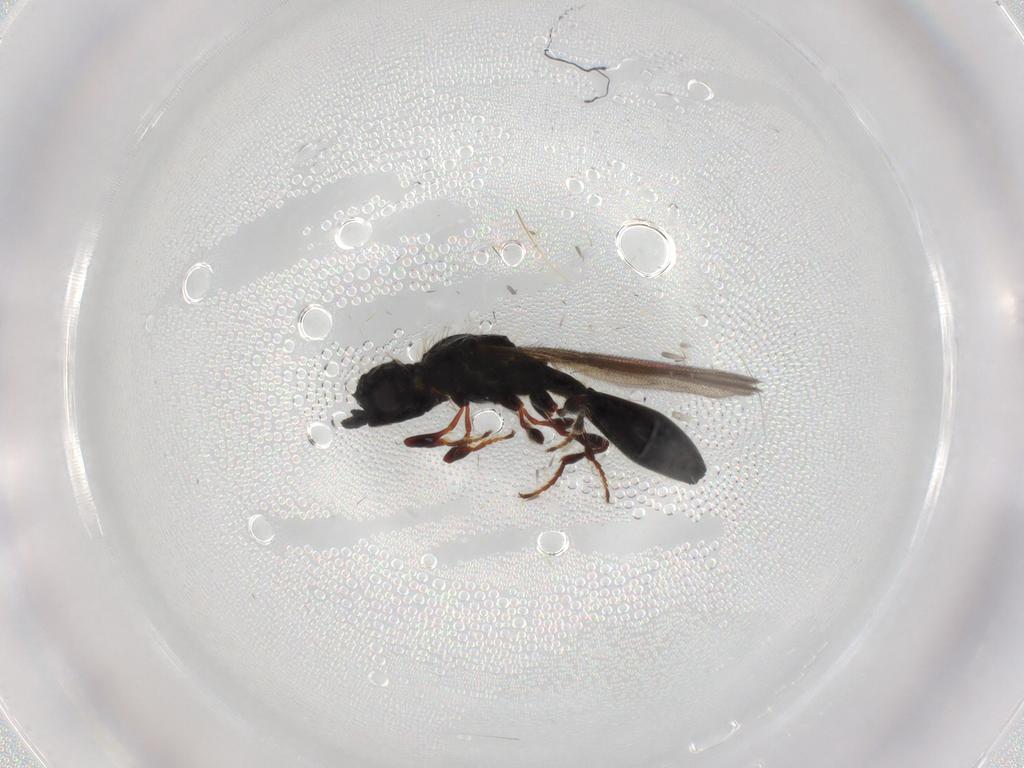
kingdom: Animalia
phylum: Arthropoda
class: Insecta
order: Hymenoptera
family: Diapriidae
